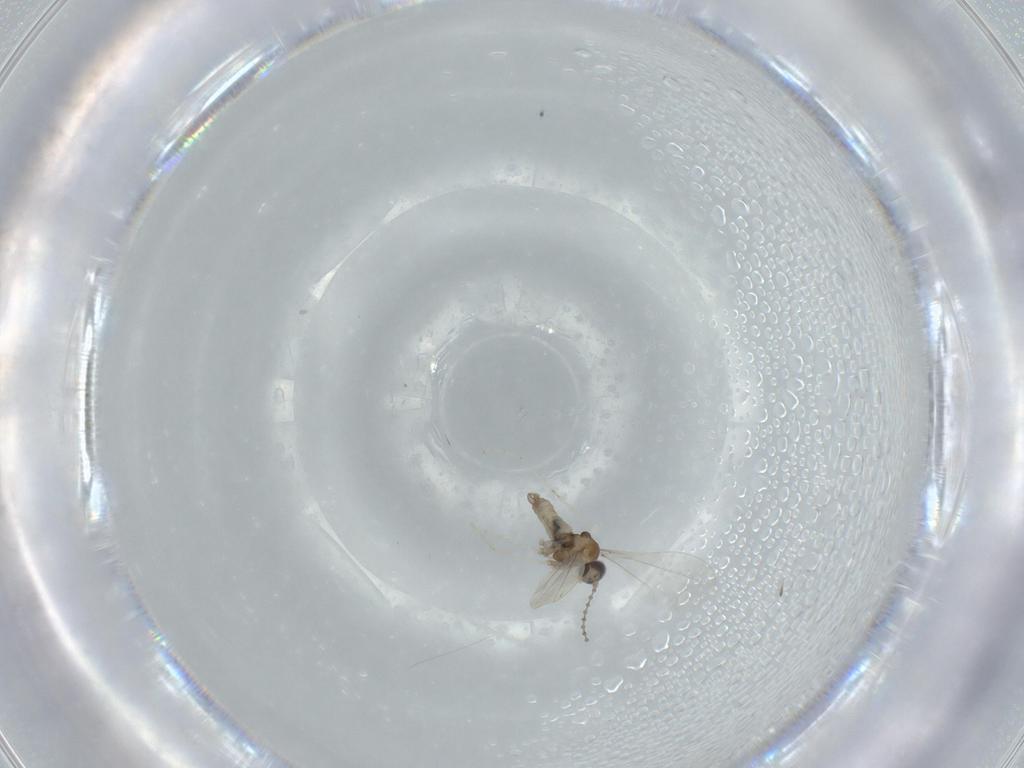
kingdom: Animalia
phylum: Arthropoda
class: Insecta
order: Diptera
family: Cecidomyiidae
